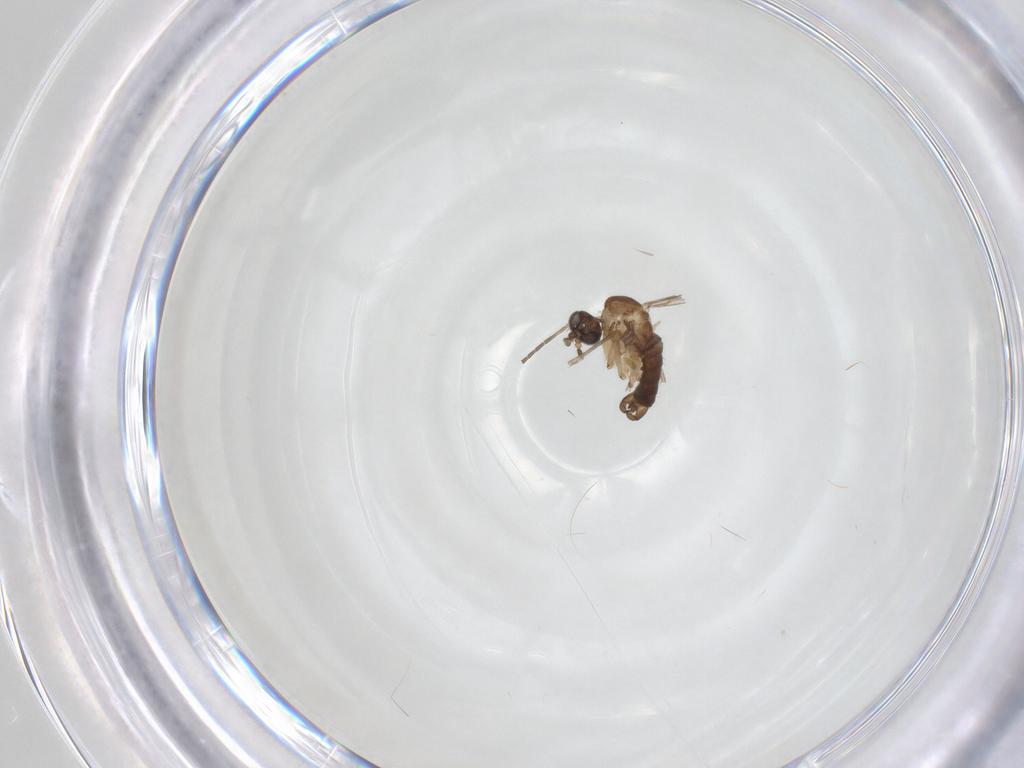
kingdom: Animalia
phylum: Arthropoda
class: Insecta
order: Diptera
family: Sciaridae
